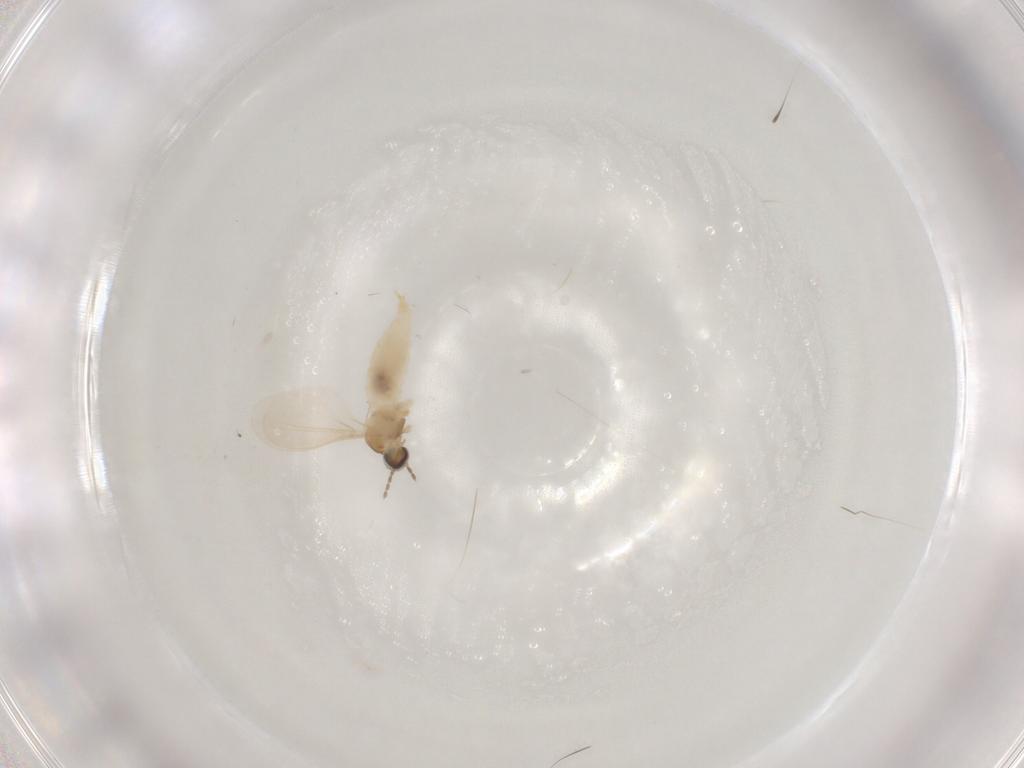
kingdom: Animalia
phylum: Arthropoda
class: Insecta
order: Diptera
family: Cecidomyiidae
